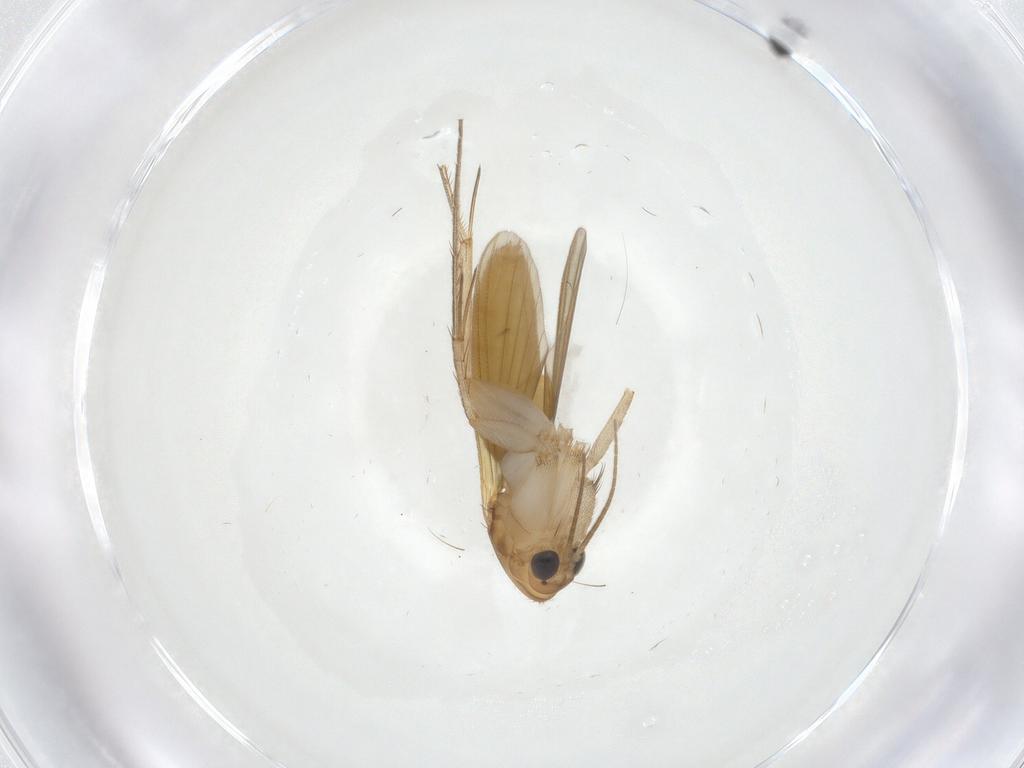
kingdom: Animalia
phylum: Arthropoda
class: Insecta
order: Diptera
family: Mycetophilidae
